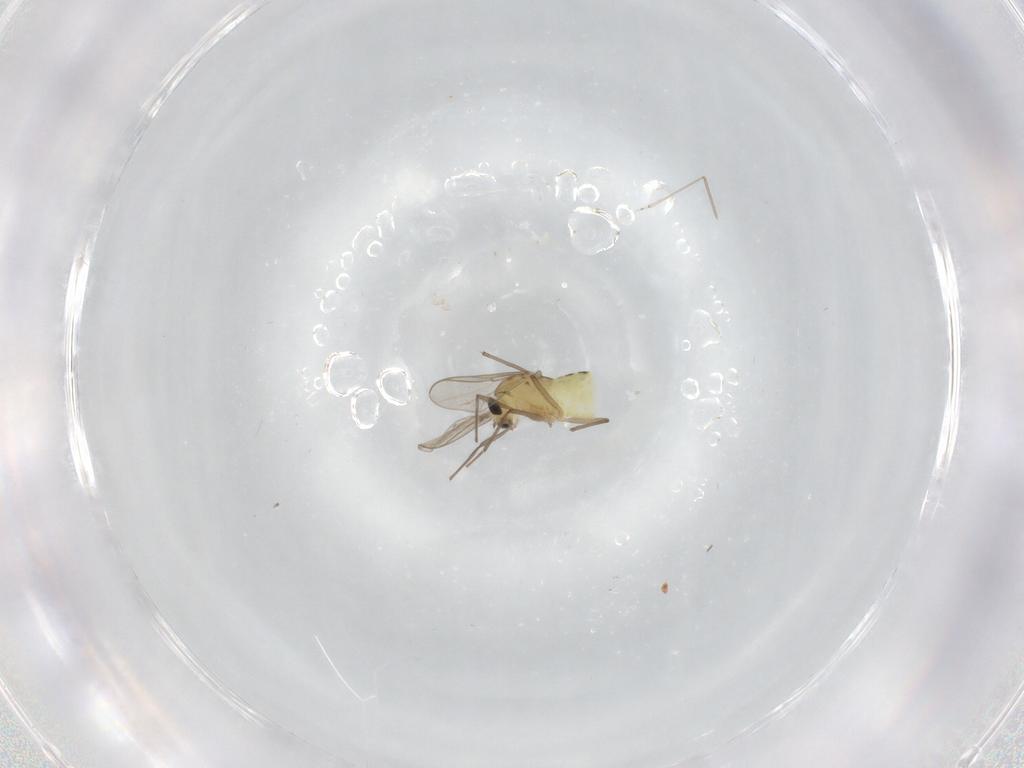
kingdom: Animalia
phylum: Arthropoda
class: Insecta
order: Diptera
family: Chironomidae
